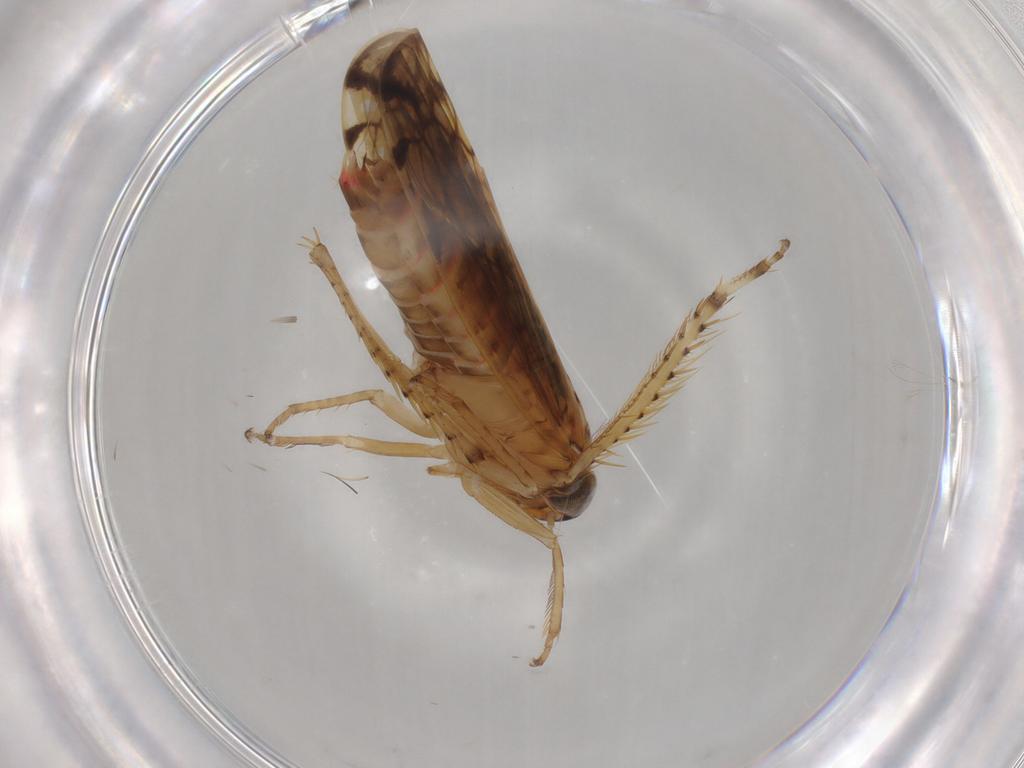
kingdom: Animalia
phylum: Arthropoda
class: Insecta
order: Hemiptera
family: Cicadellidae
